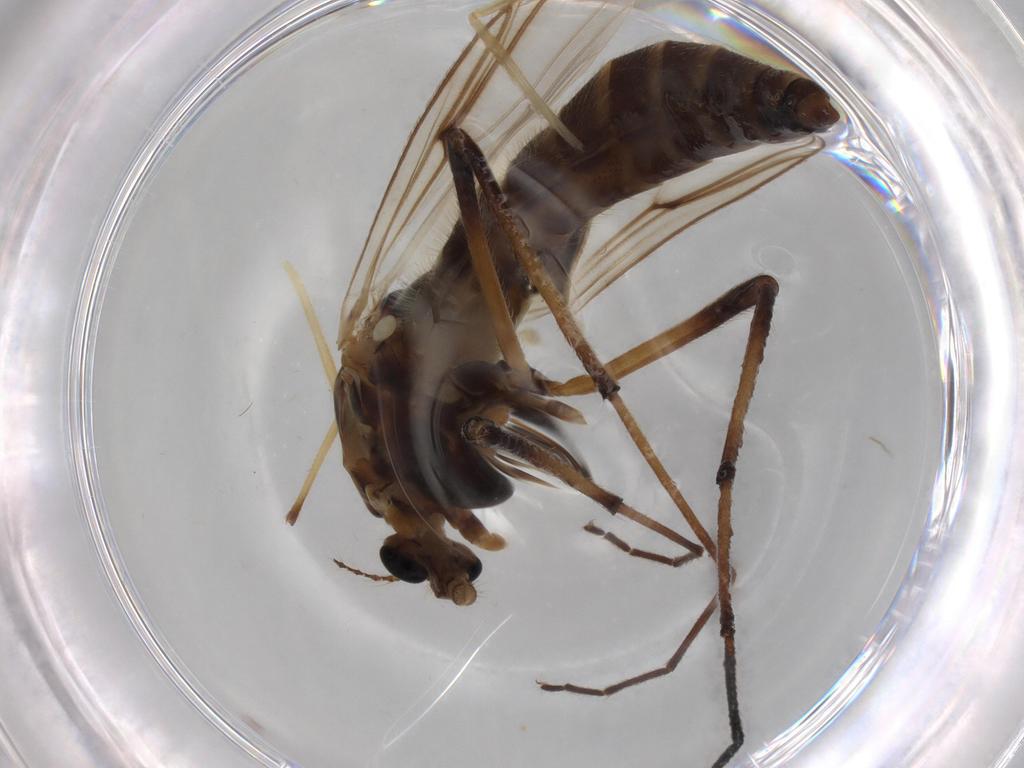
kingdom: Animalia
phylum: Arthropoda
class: Insecta
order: Diptera
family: Chironomidae
